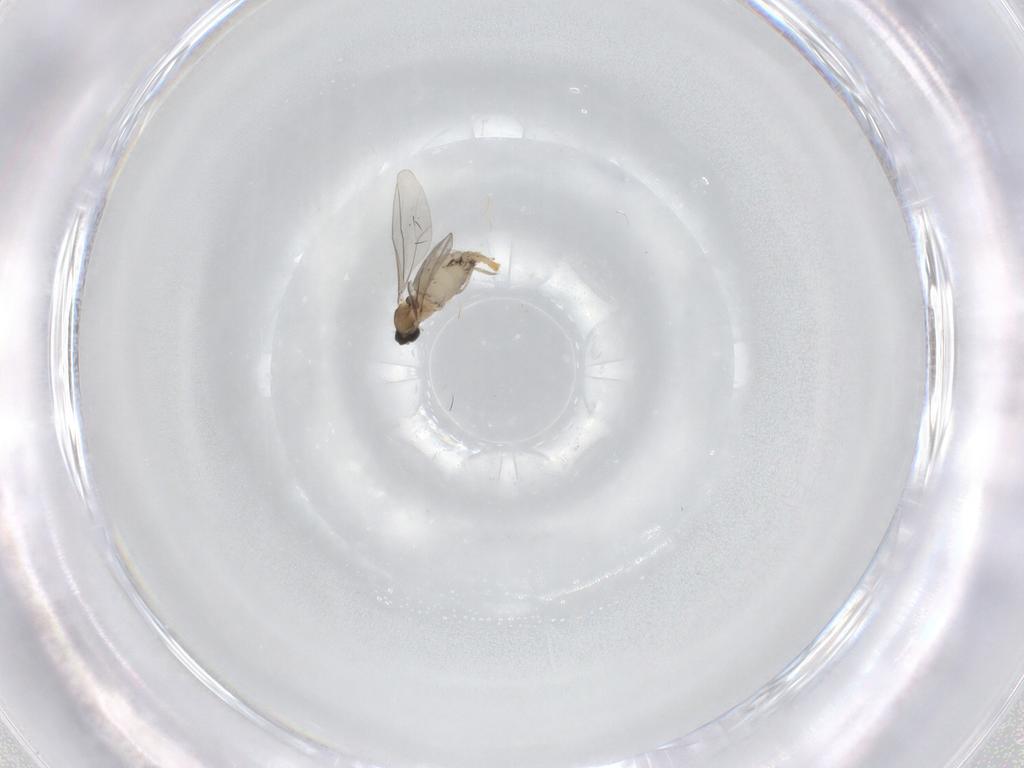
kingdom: Animalia
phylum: Arthropoda
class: Insecta
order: Diptera
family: Cecidomyiidae
